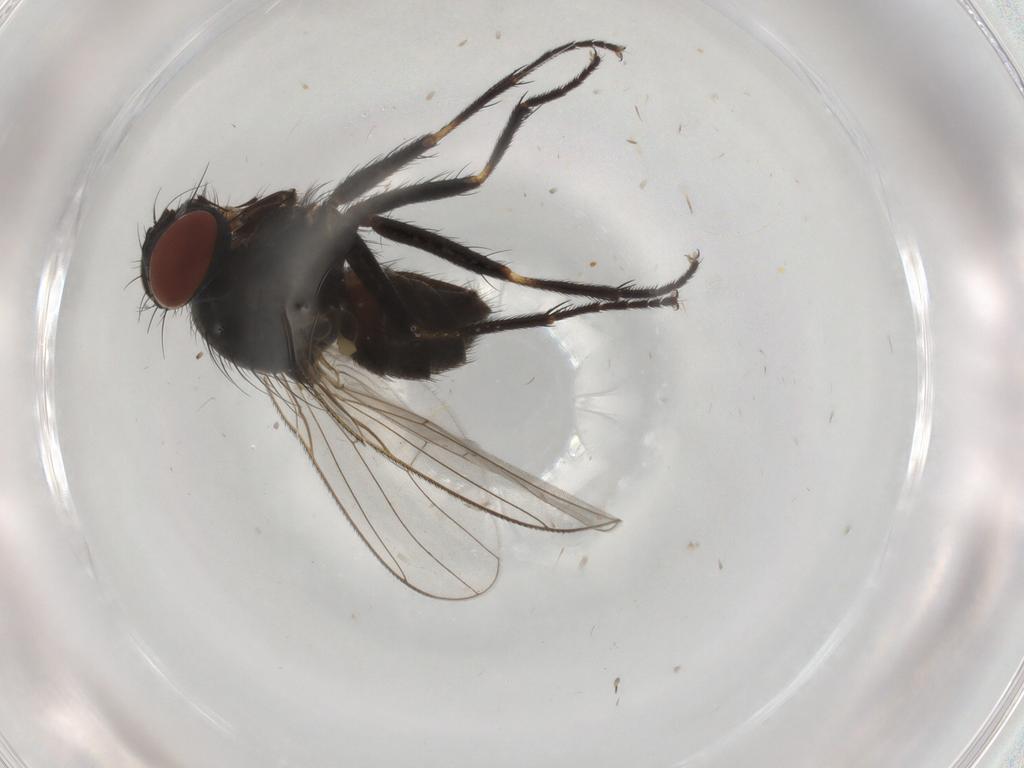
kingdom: Animalia
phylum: Arthropoda
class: Insecta
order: Diptera
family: Muscidae
